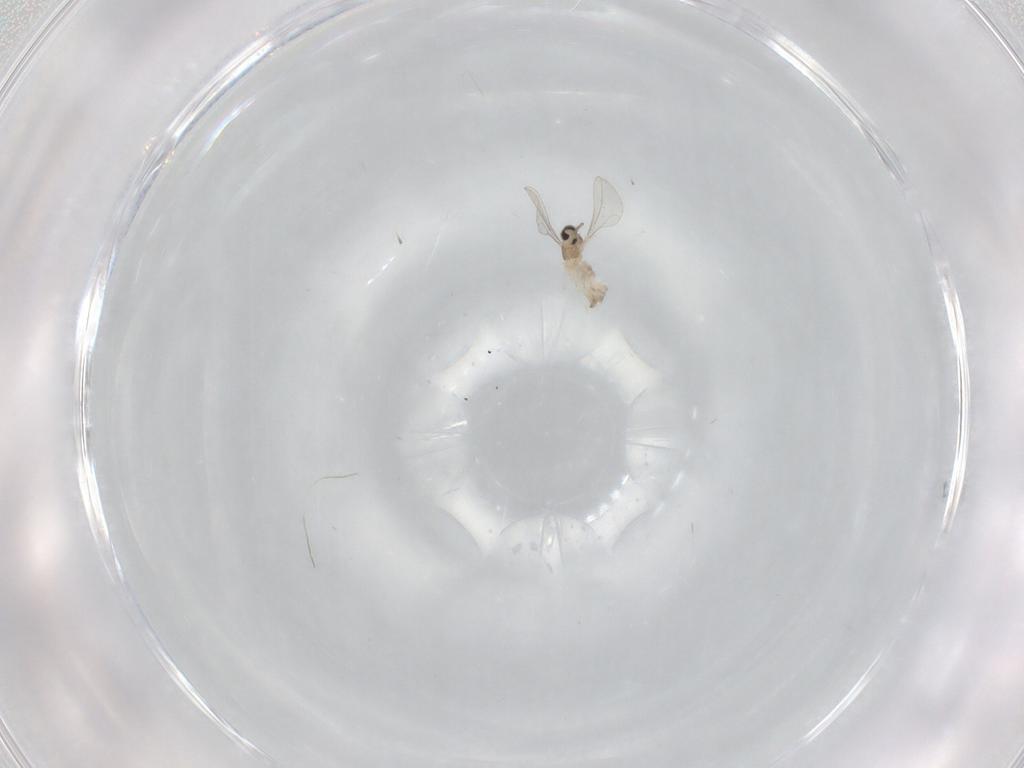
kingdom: Animalia
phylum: Arthropoda
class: Insecta
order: Diptera
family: Cecidomyiidae
